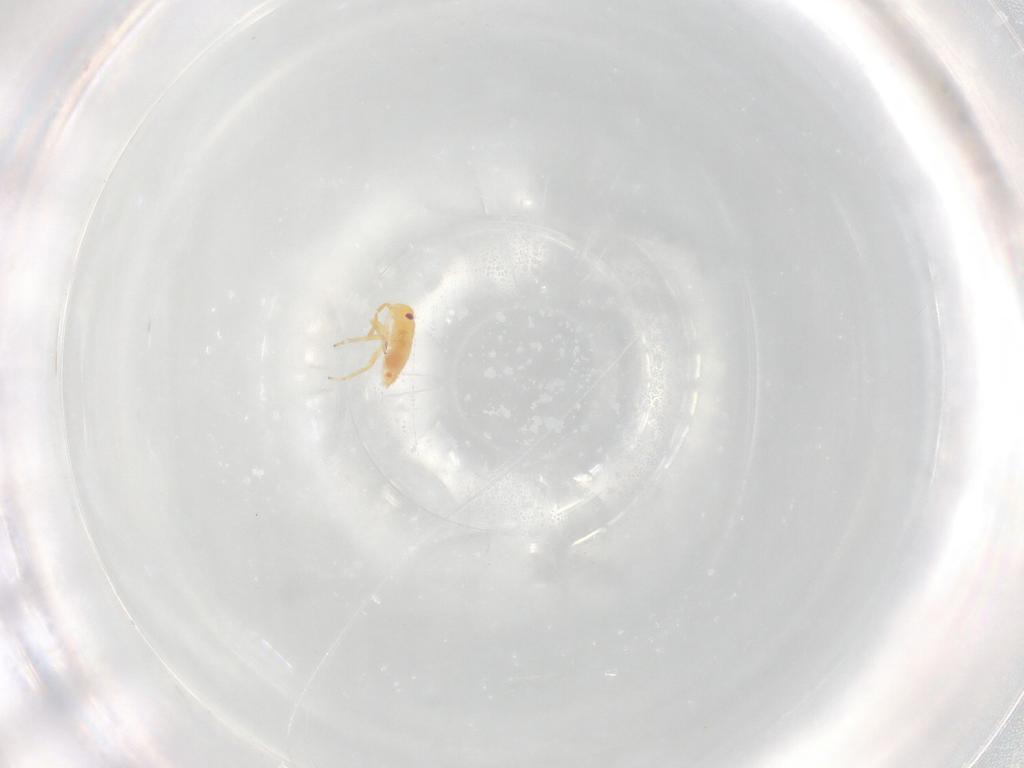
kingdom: Animalia
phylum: Arthropoda
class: Insecta
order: Hemiptera
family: Miridae
